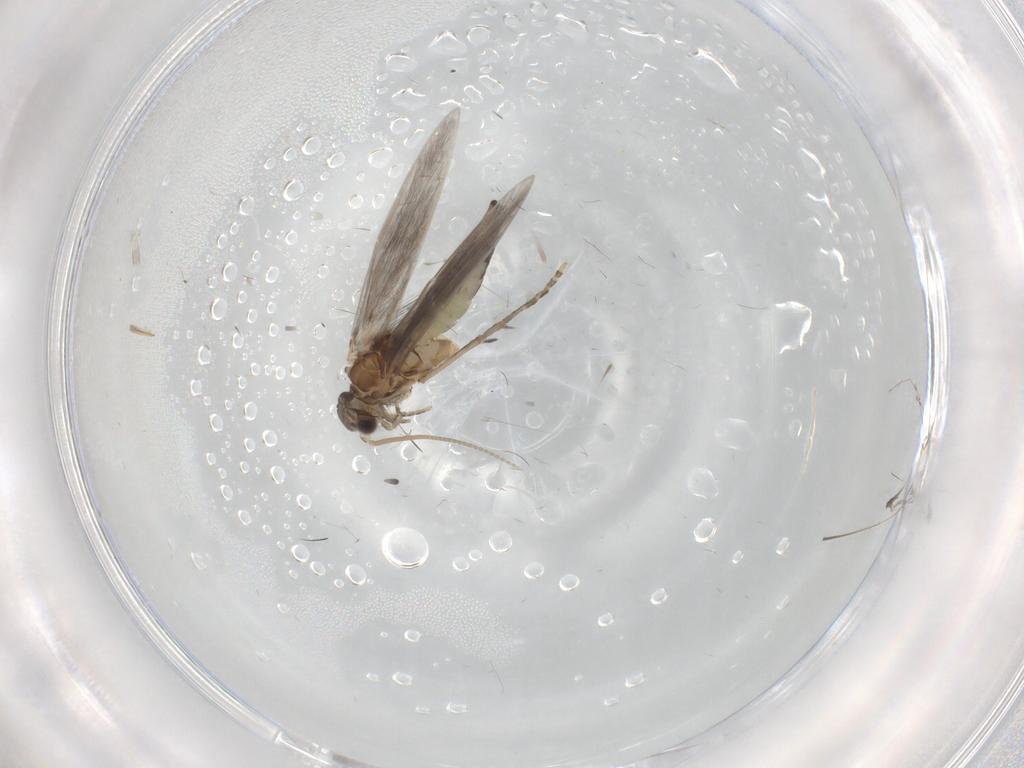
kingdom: Animalia
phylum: Arthropoda
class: Insecta
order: Trichoptera
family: Hydroptilidae
